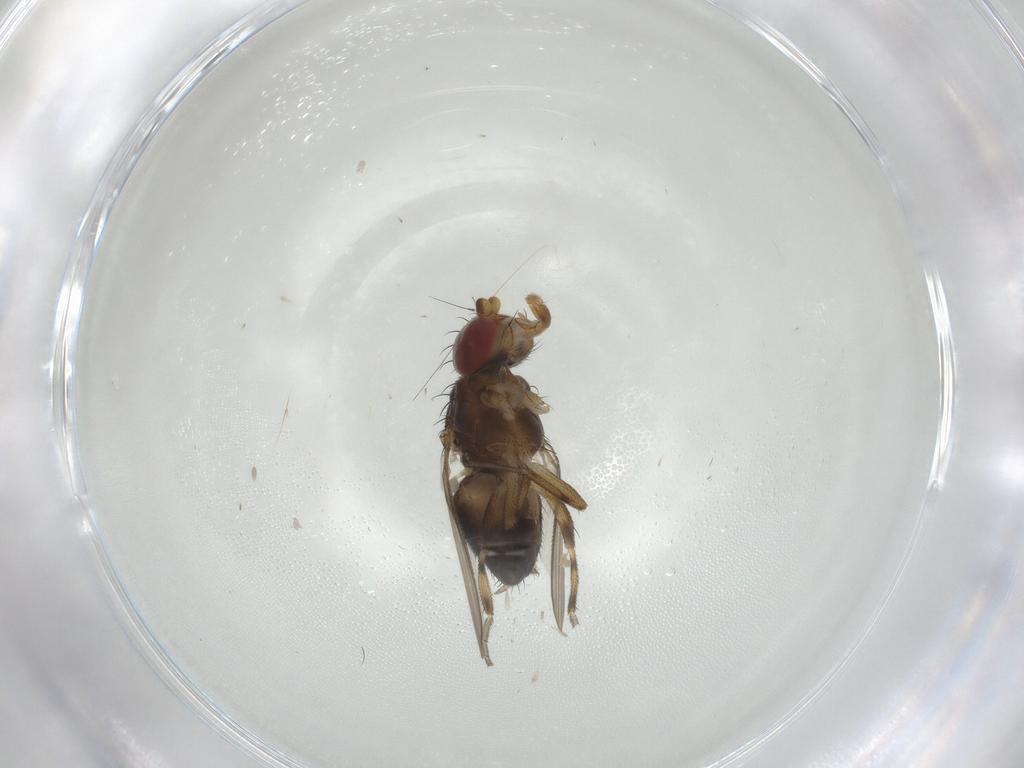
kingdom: Animalia
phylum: Arthropoda
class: Insecta
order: Diptera
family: Heleomyzidae
